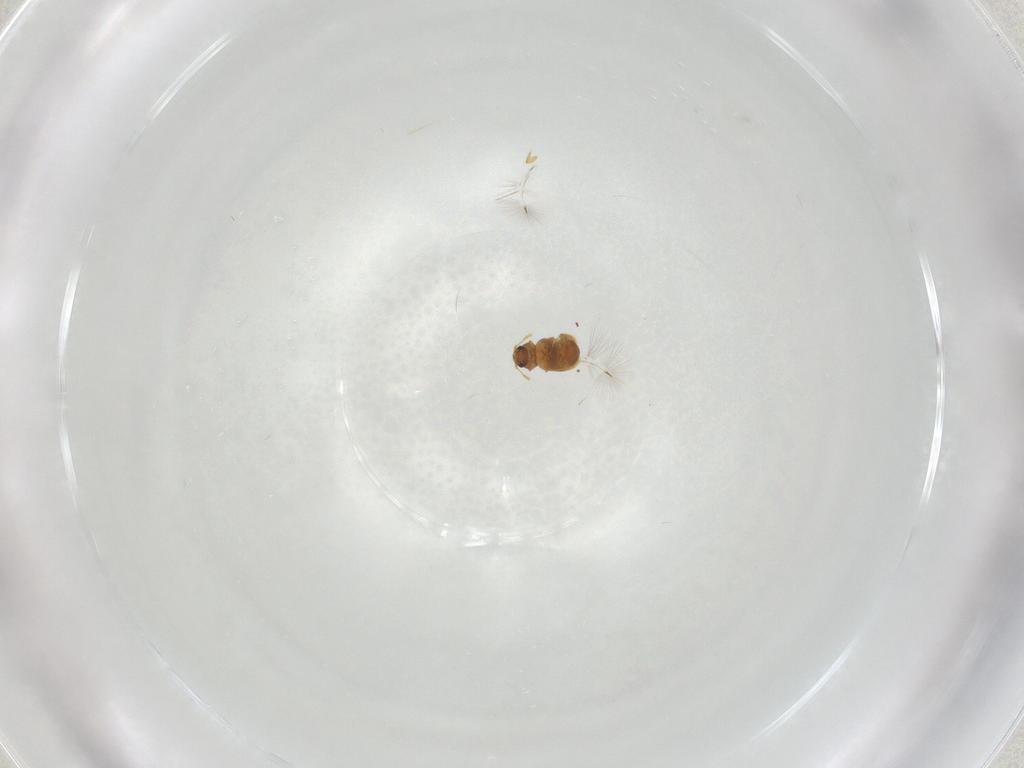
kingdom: Animalia
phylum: Arthropoda
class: Insecta
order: Coleoptera
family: Ptiliidae
